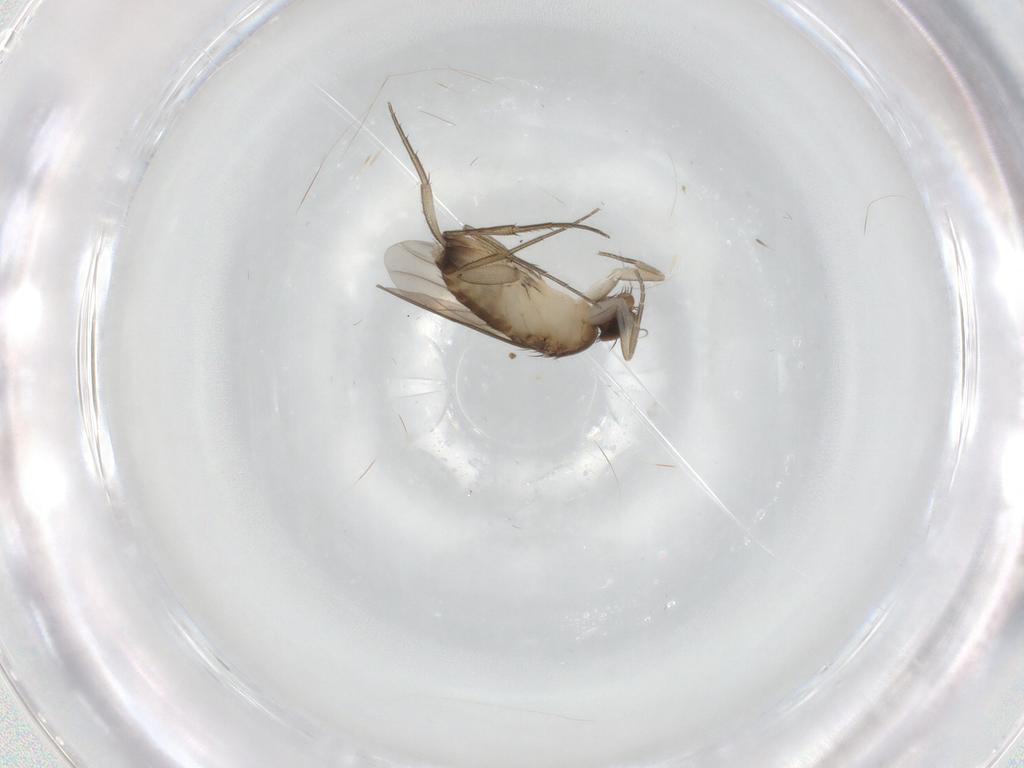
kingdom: Animalia
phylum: Arthropoda
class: Insecta
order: Diptera
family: Phoridae
